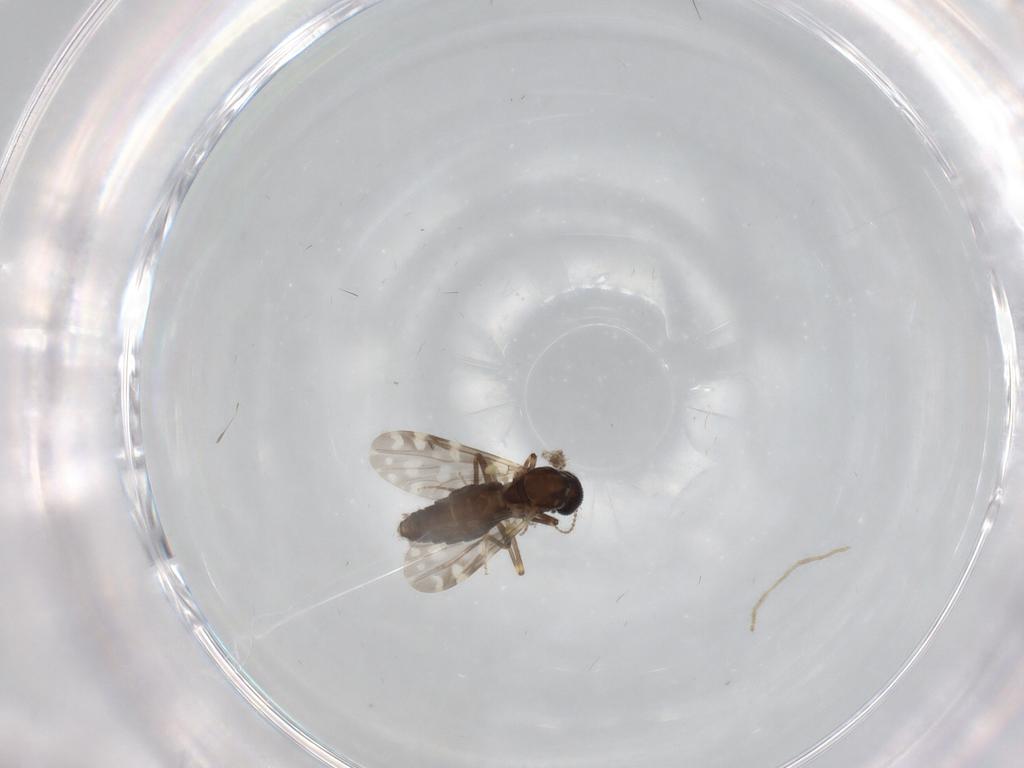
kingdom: Animalia
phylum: Arthropoda
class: Insecta
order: Diptera
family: Ceratopogonidae
